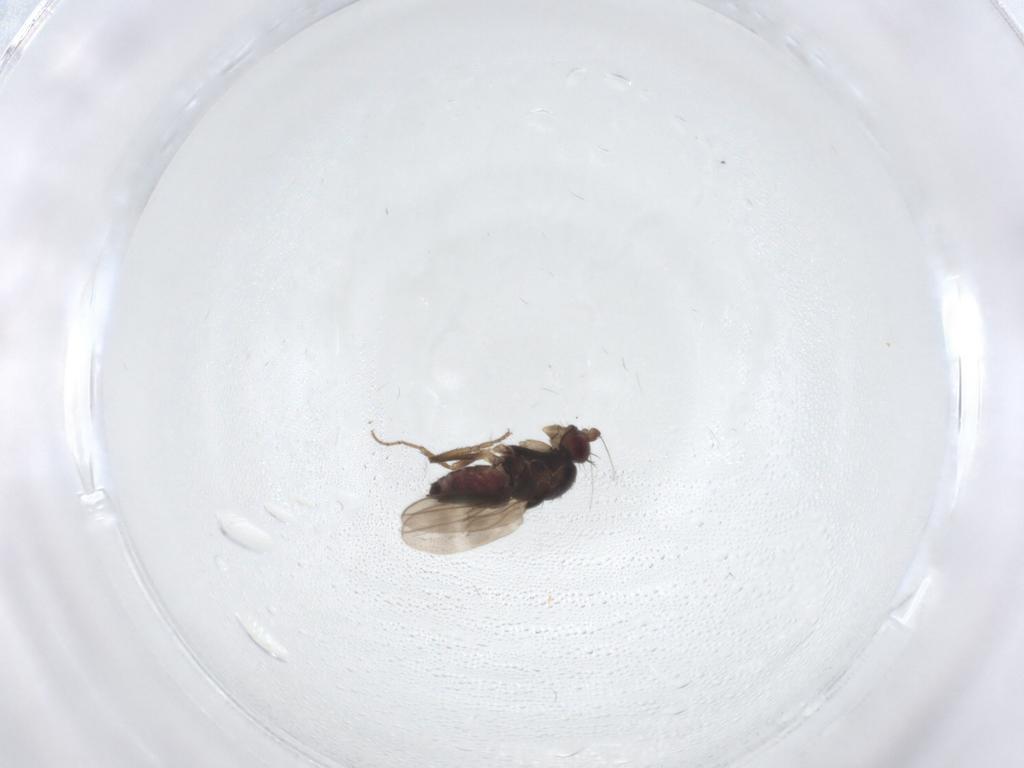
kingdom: Animalia
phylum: Arthropoda
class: Insecta
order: Diptera
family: Sphaeroceridae
